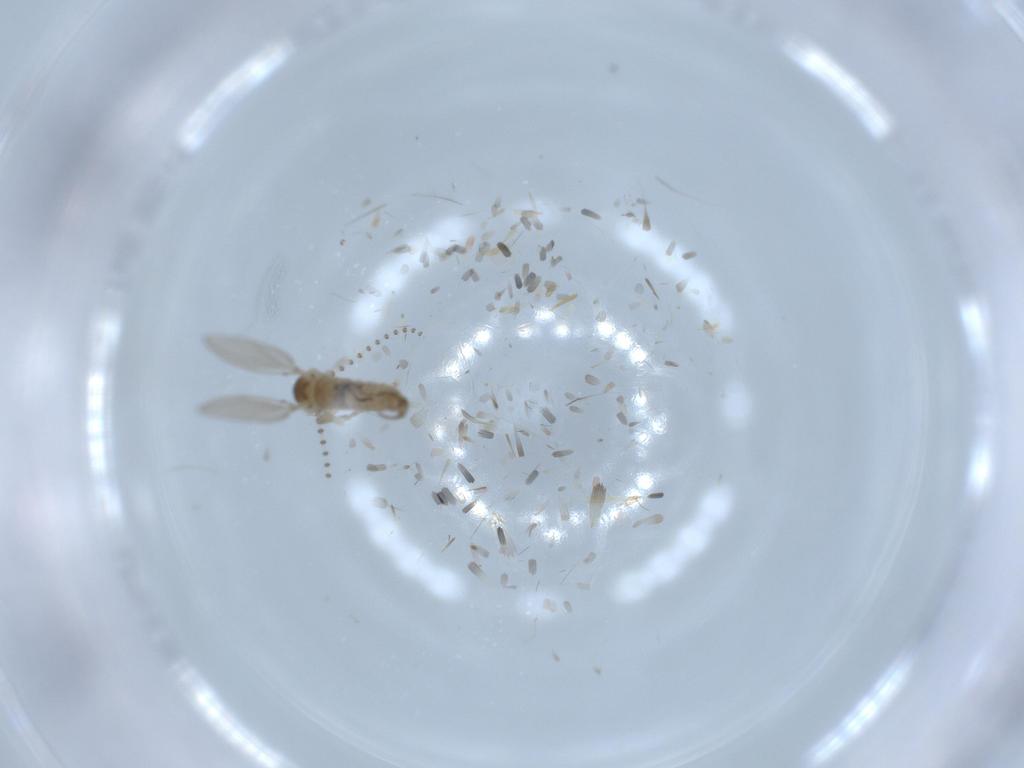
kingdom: Animalia
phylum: Arthropoda
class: Insecta
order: Diptera
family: Psychodidae
